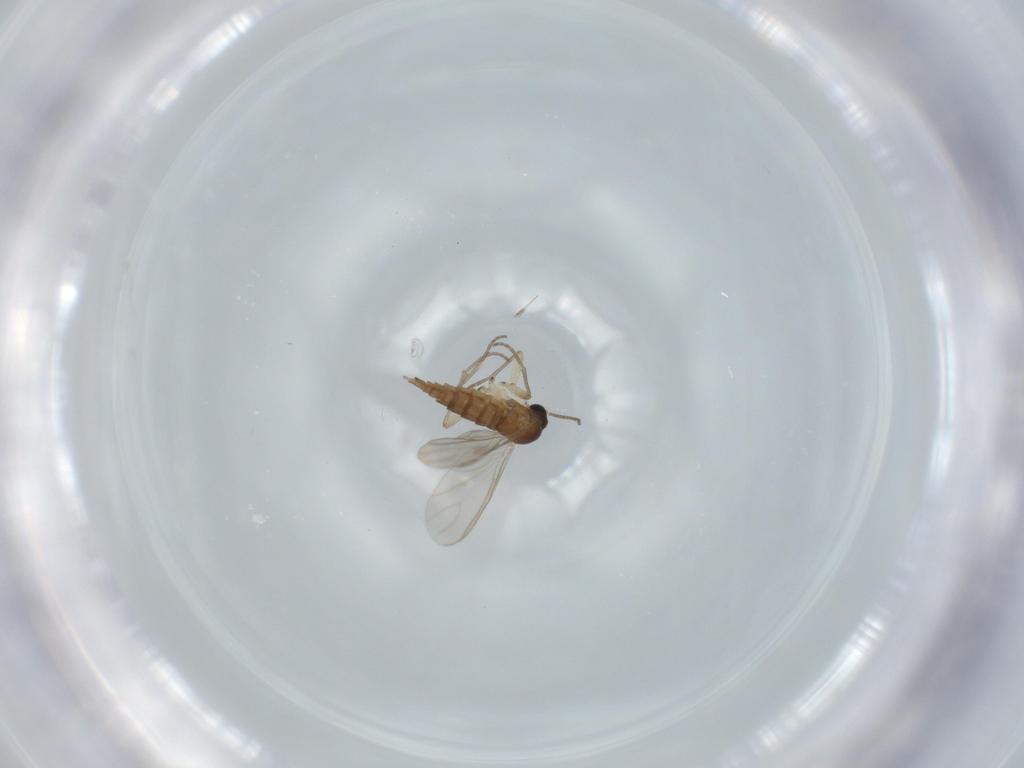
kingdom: Animalia
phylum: Arthropoda
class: Insecta
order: Diptera
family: Sciaridae
